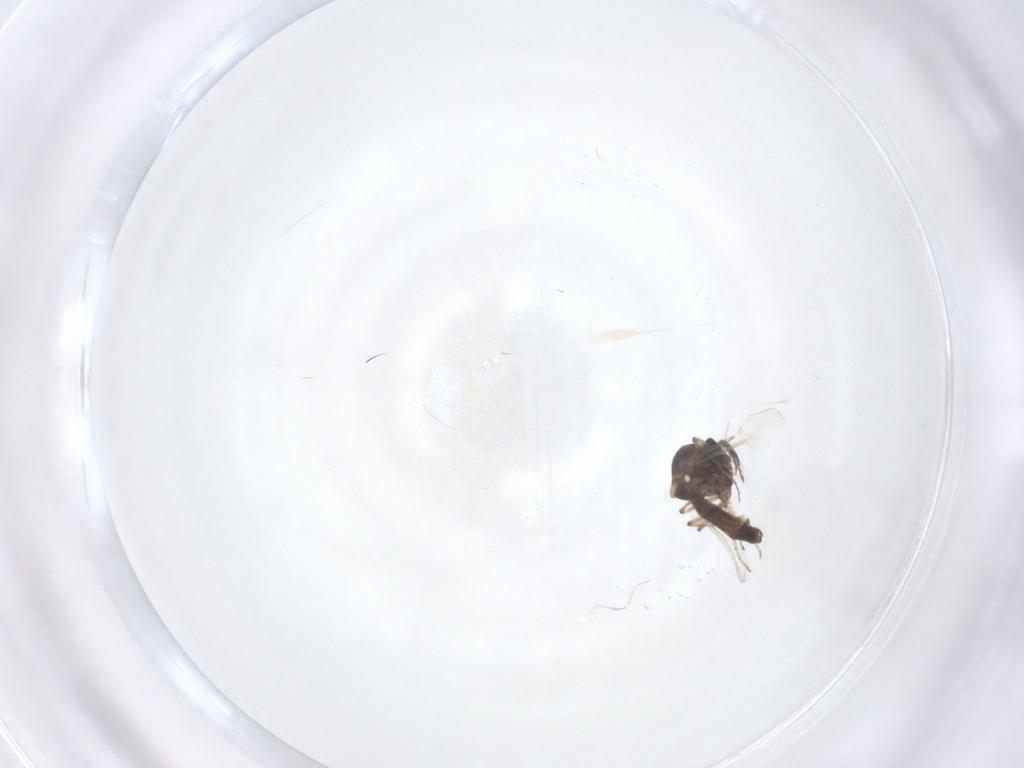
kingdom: Animalia
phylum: Arthropoda
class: Insecta
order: Diptera
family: Ceratopogonidae
